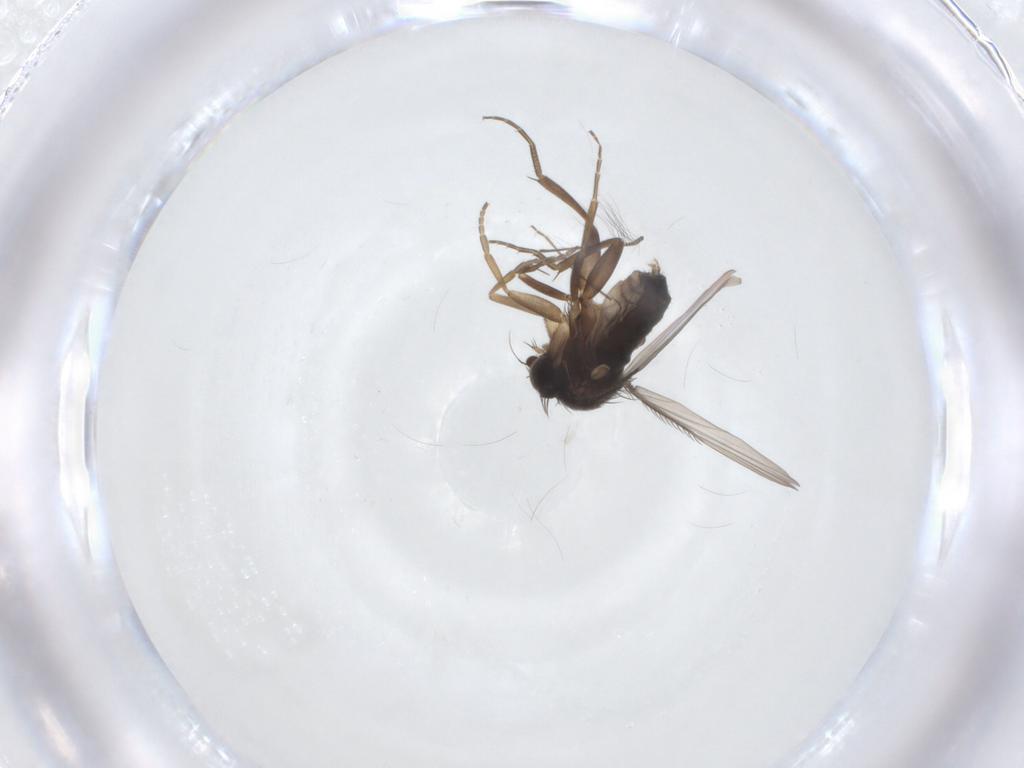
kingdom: Animalia
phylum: Arthropoda
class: Insecta
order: Diptera
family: Phoridae
